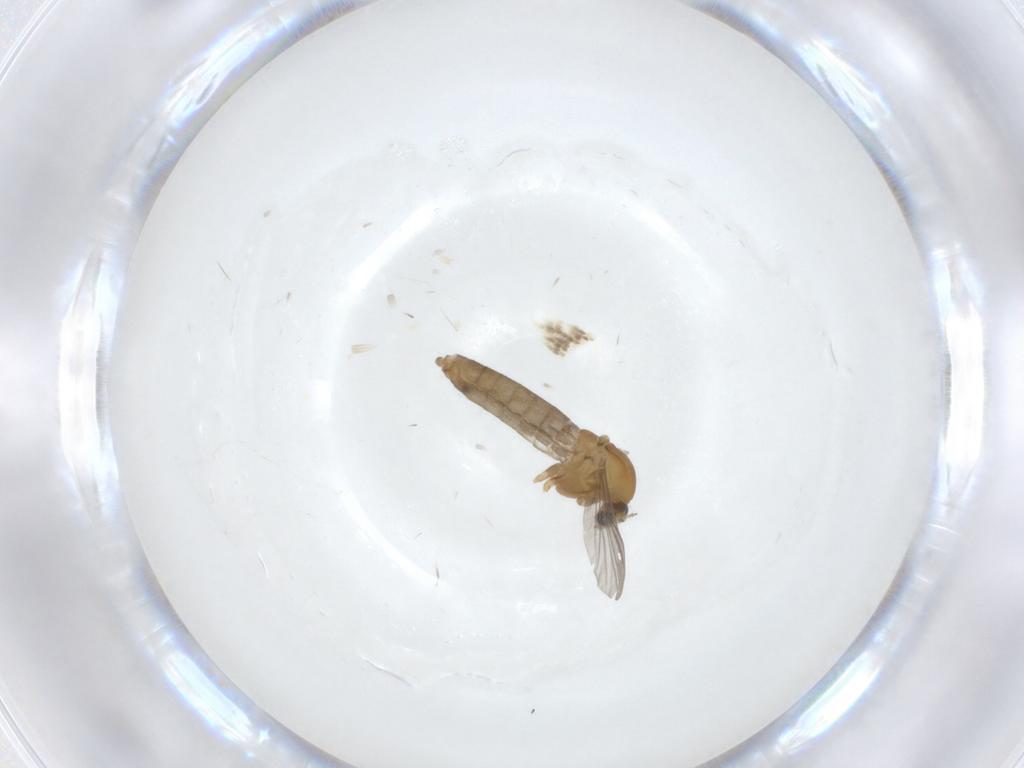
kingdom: Animalia
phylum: Arthropoda
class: Insecta
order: Diptera
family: Chironomidae
